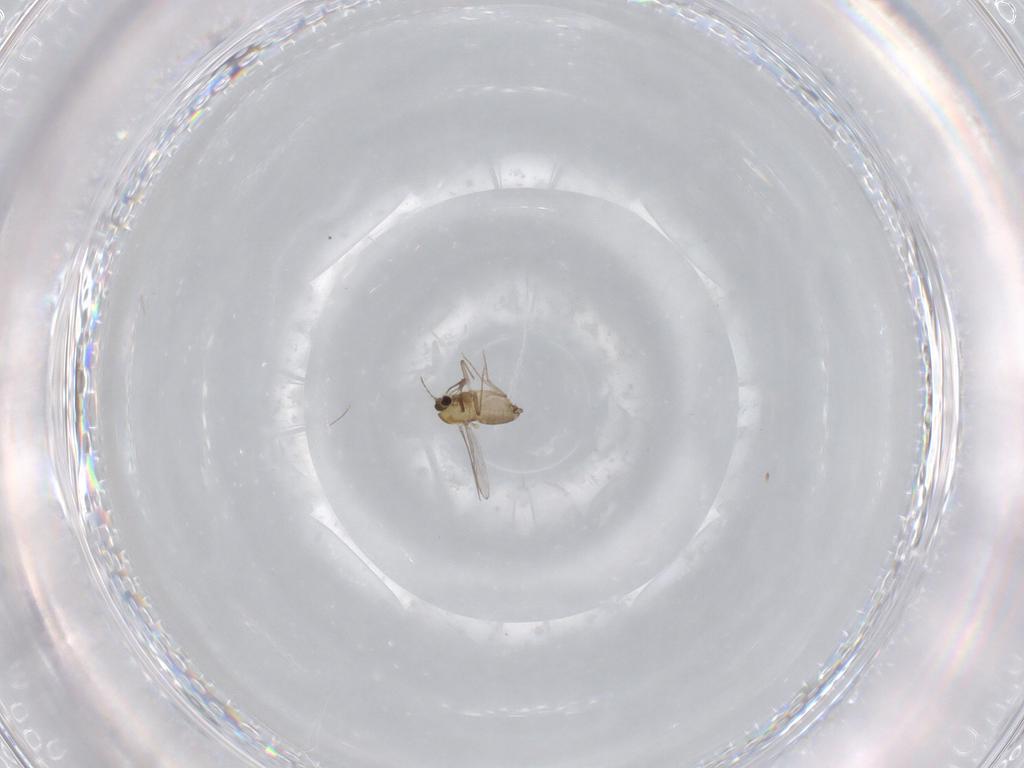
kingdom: Animalia
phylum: Arthropoda
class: Insecta
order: Diptera
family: Chironomidae
